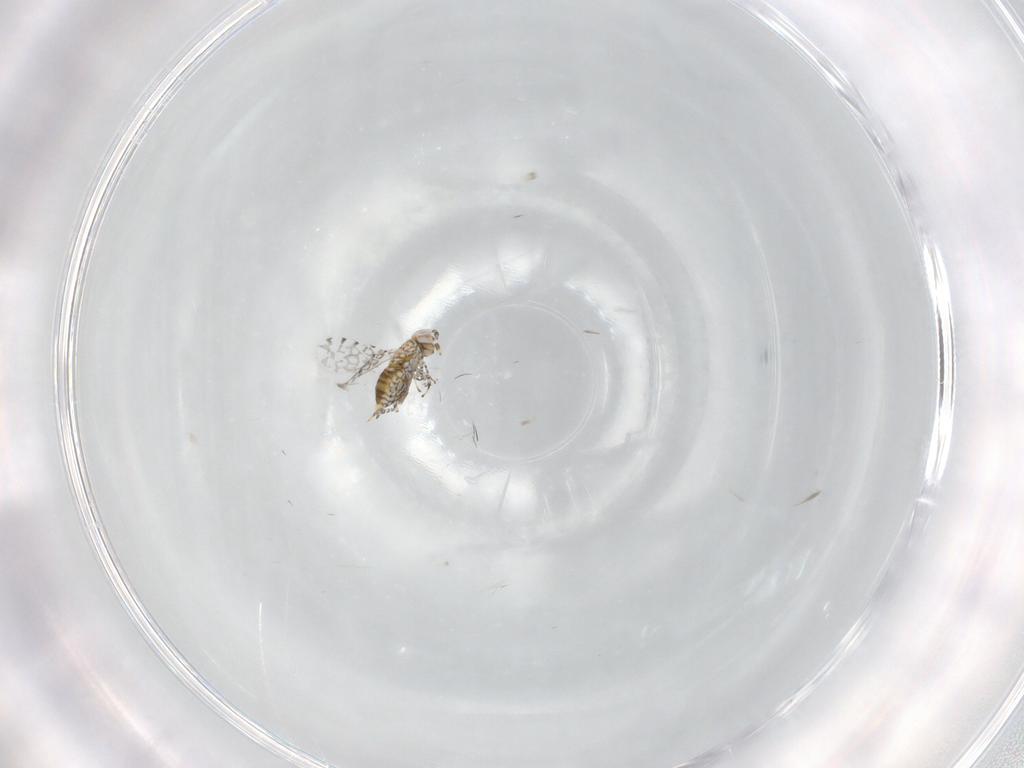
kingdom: Animalia
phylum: Arthropoda
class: Insecta
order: Hymenoptera
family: Aphelinidae
